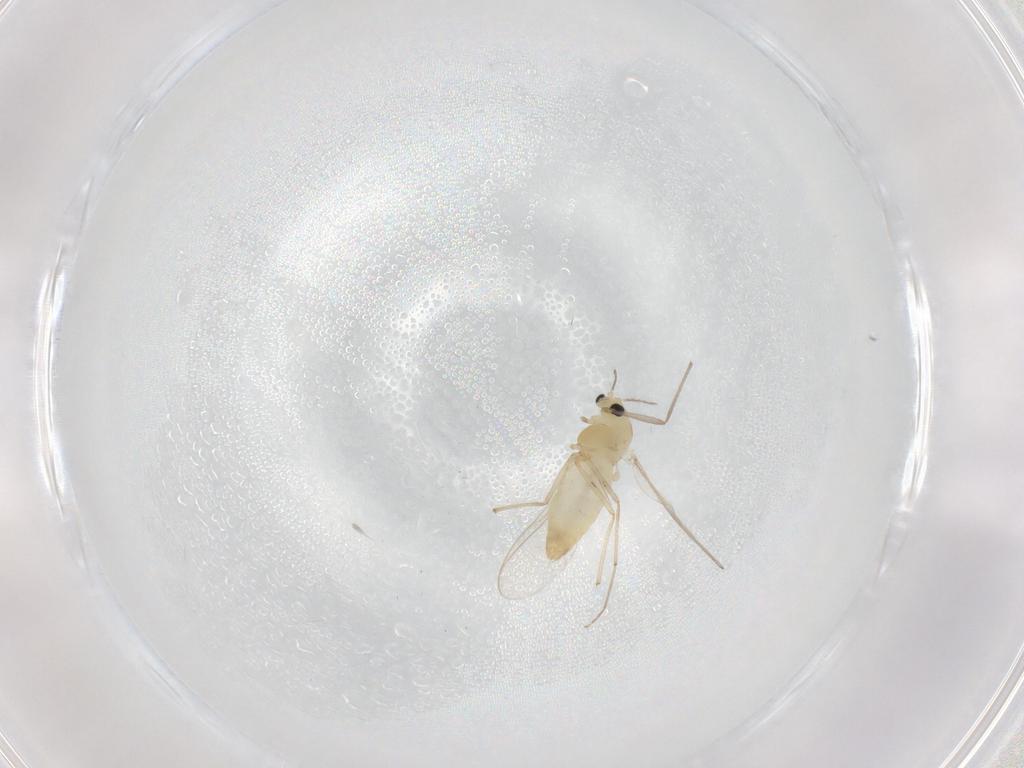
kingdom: Animalia
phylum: Arthropoda
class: Insecta
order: Diptera
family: Chironomidae
